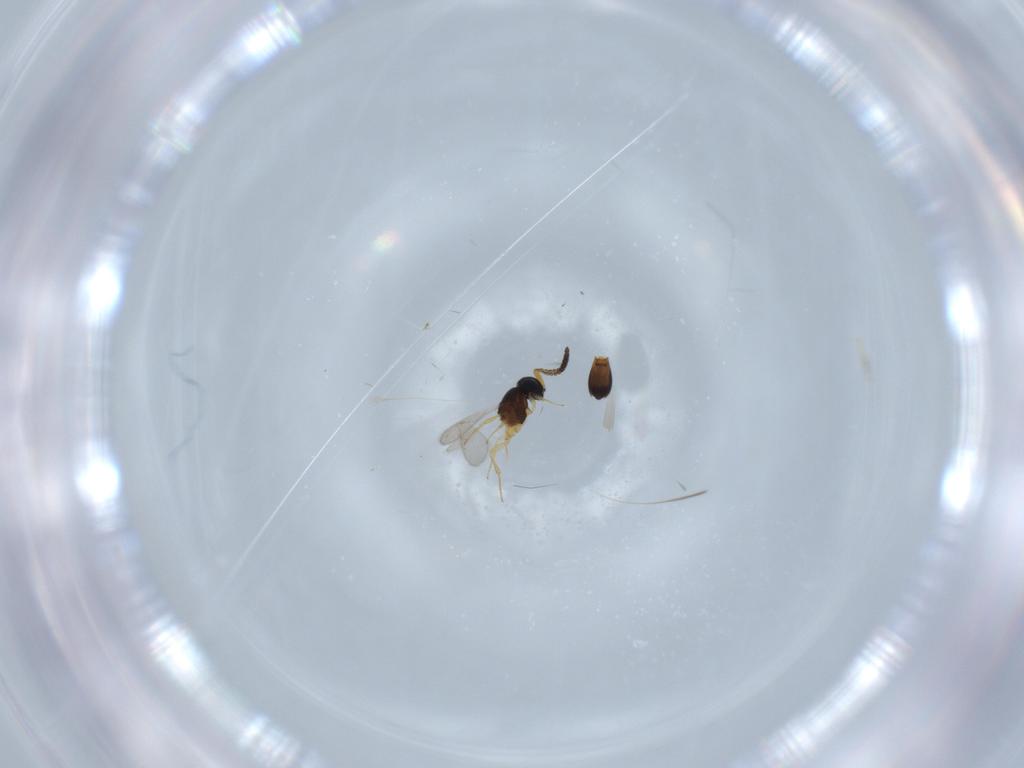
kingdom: Animalia
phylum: Arthropoda
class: Insecta
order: Hymenoptera
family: Scelionidae
